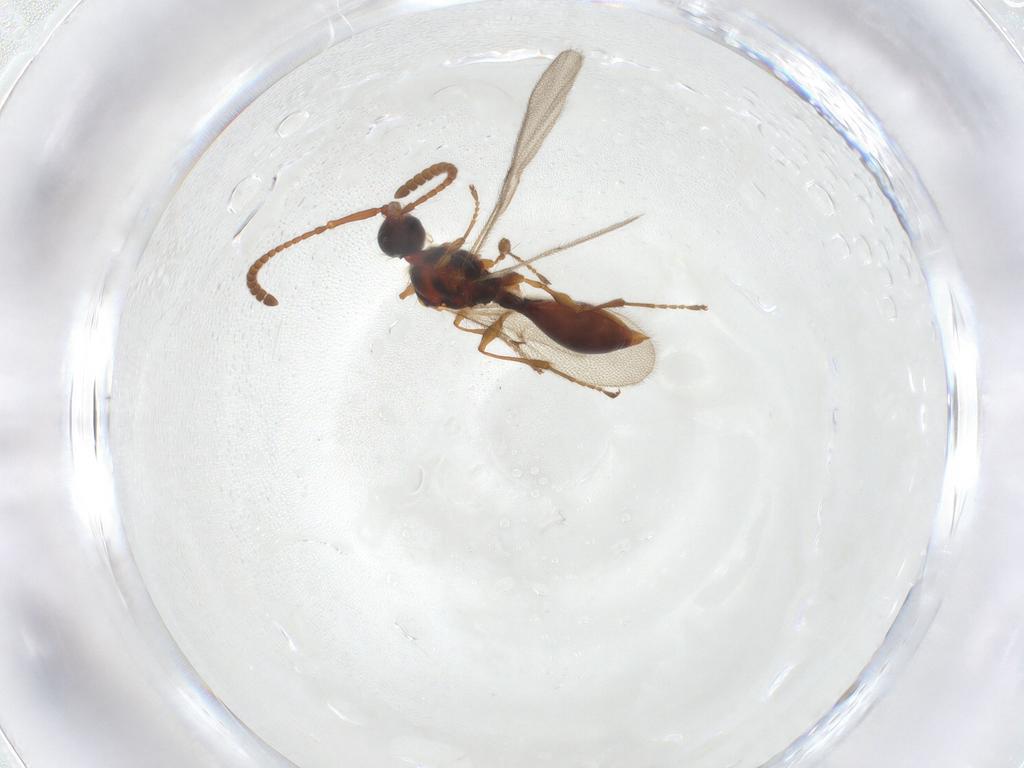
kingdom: Animalia
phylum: Arthropoda
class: Insecta
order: Hymenoptera
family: Diapriidae
